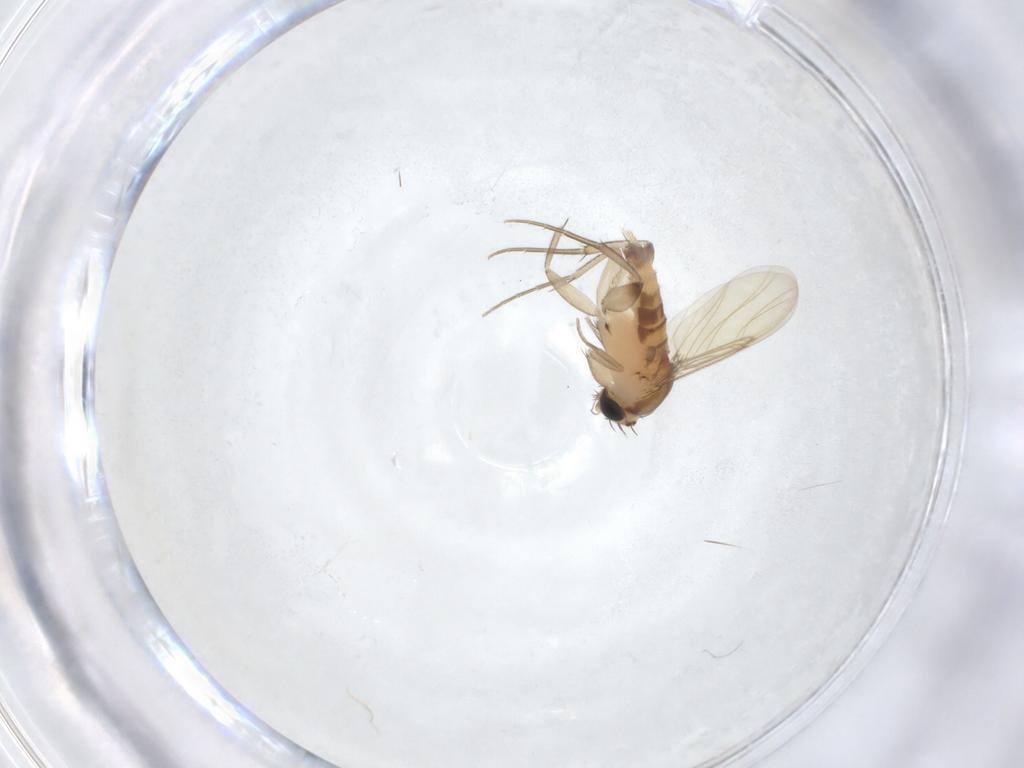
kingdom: Animalia
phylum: Arthropoda
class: Insecta
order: Diptera
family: Phoridae
